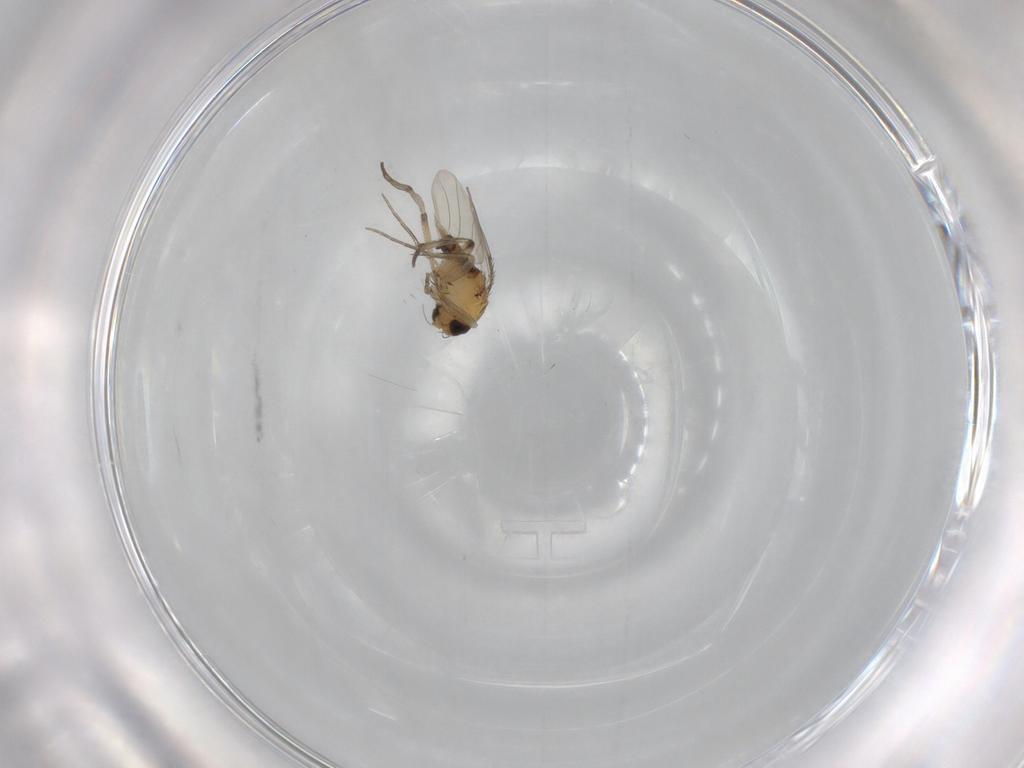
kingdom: Animalia
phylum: Arthropoda
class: Insecta
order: Diptera
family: Phoridae
